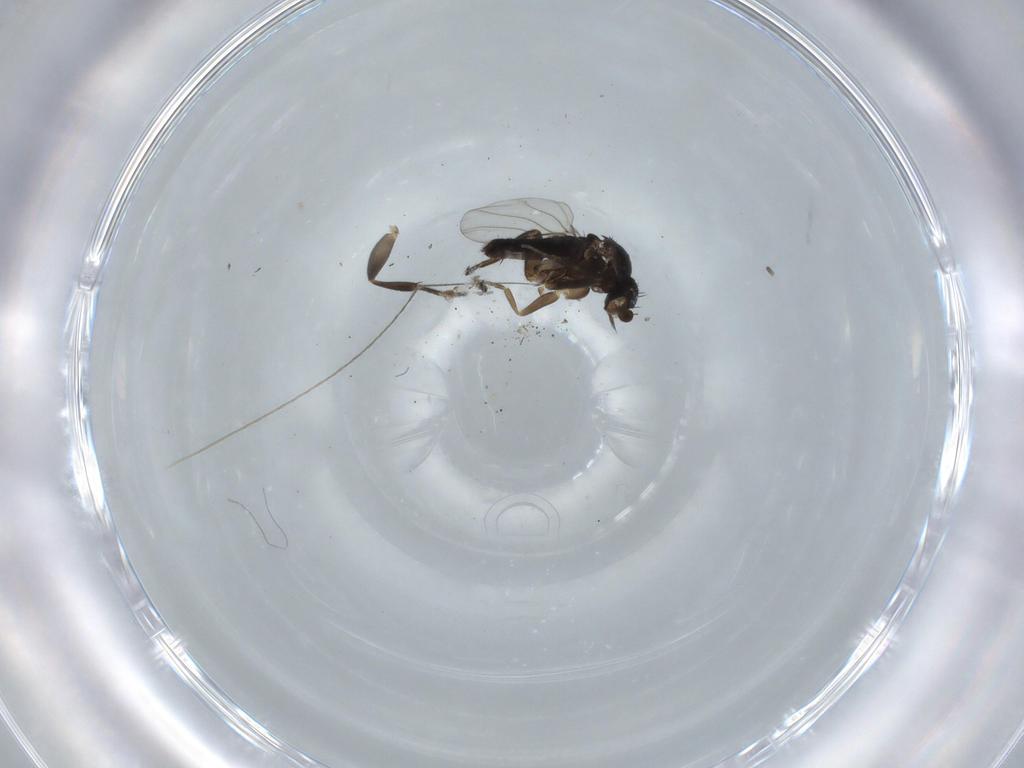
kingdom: Animalia
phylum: Arthropoda
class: Insecta
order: Diptera
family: Phoridae
